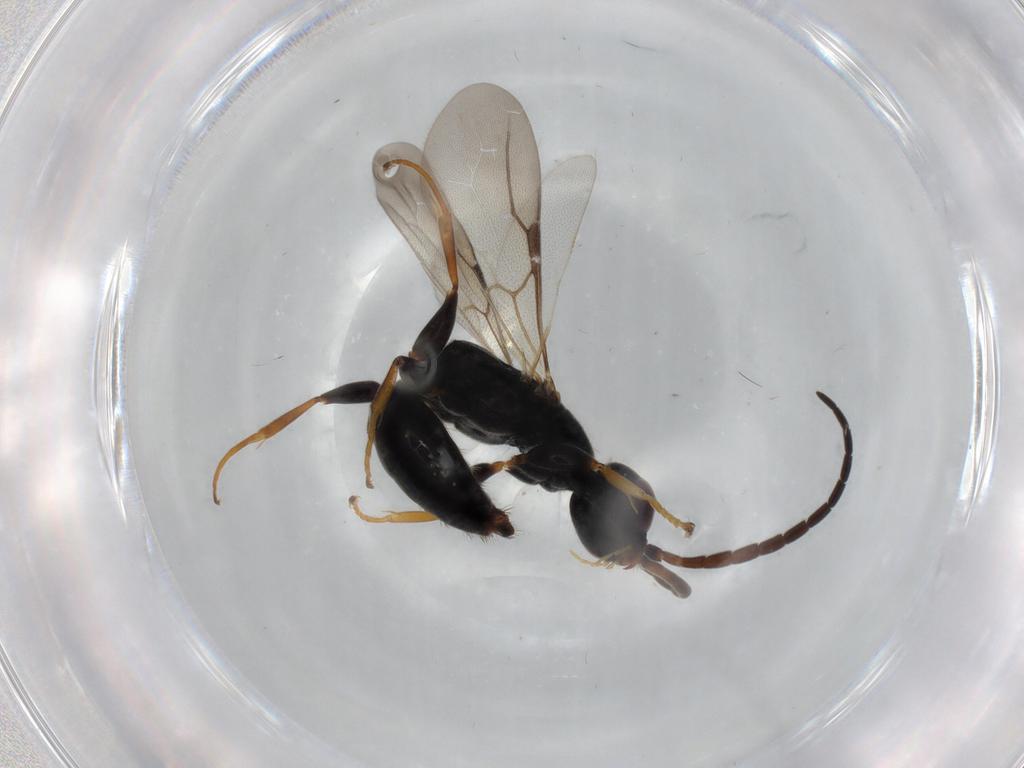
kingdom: Animalia
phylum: Arthropoda
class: Insecta
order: Hymenoptera
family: Bethylidae
